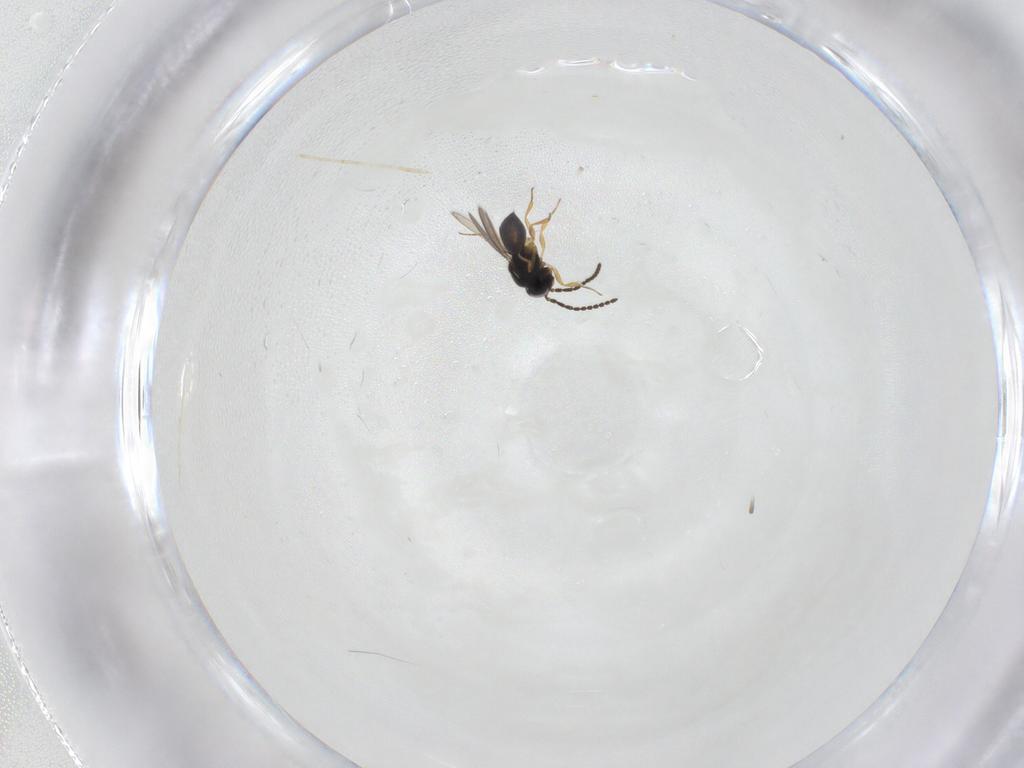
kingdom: Animalia
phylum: Arthropoda
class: Insecta
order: Hymenoptera
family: Scelionidae
